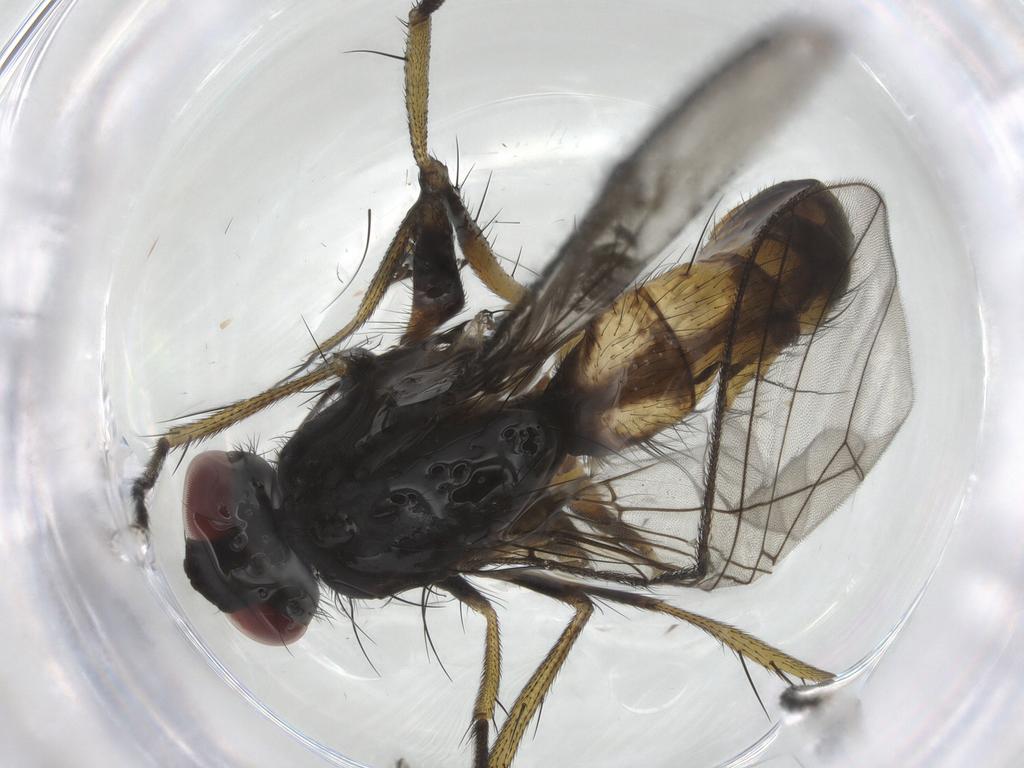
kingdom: Animalia
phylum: Arthropoda
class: Insecta
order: Diptera
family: Muscidae
